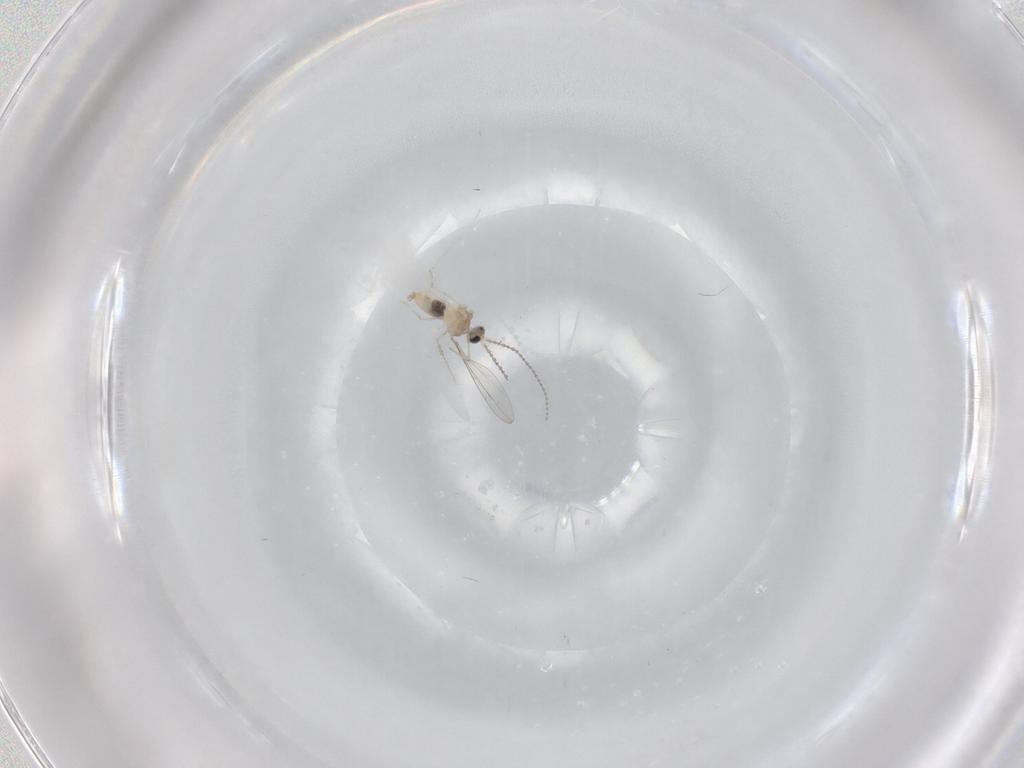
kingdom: Animalia
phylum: Arthropoda
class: Insecta
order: Diptera
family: Cecidomyiidae
